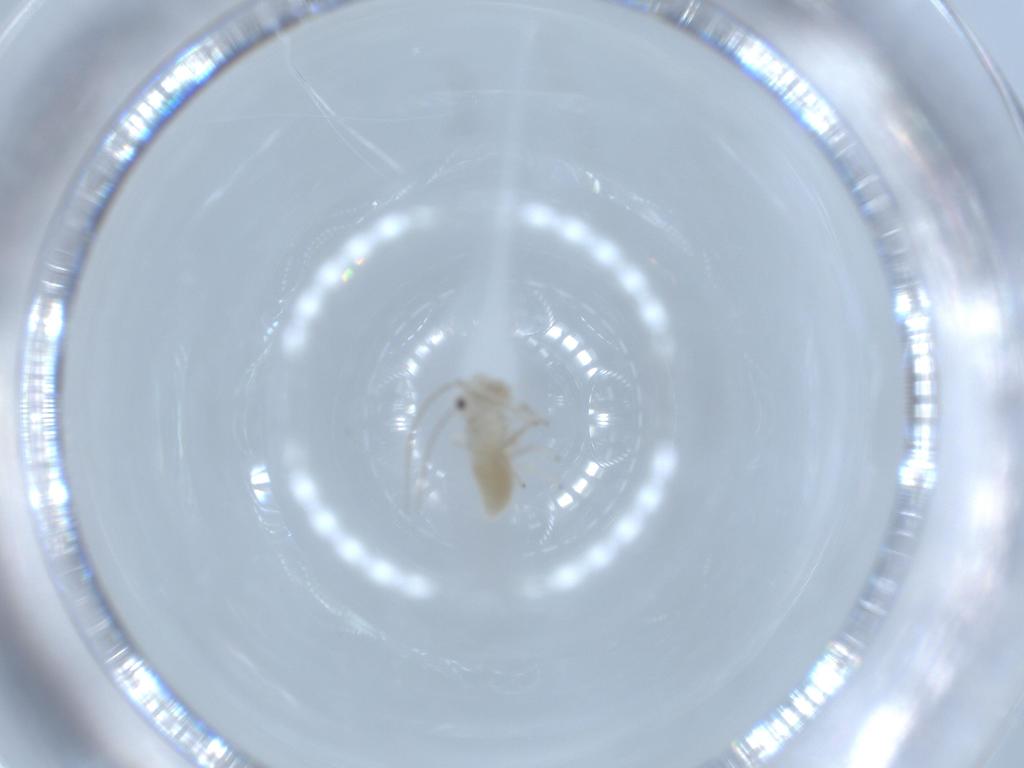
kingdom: Animalia
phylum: Arthropoda
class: Insecta
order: Psocodea
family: Caeciliusidae
